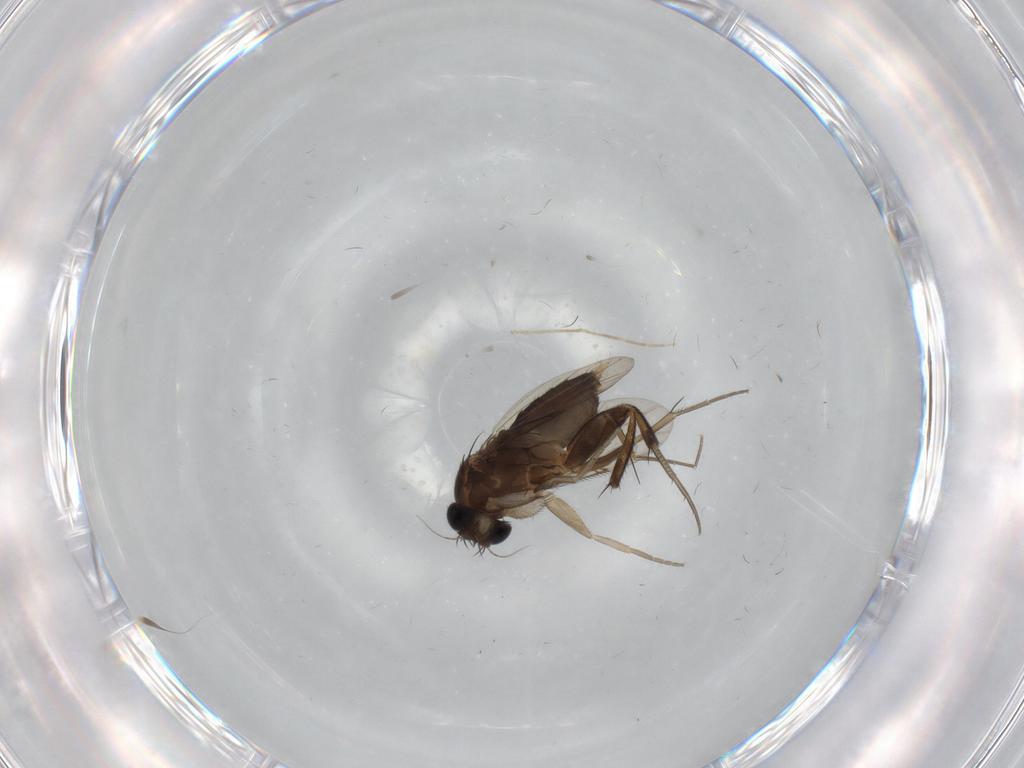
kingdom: Animalia
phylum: Arthropoda
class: Insecta
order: Diptera
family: Phoridae
